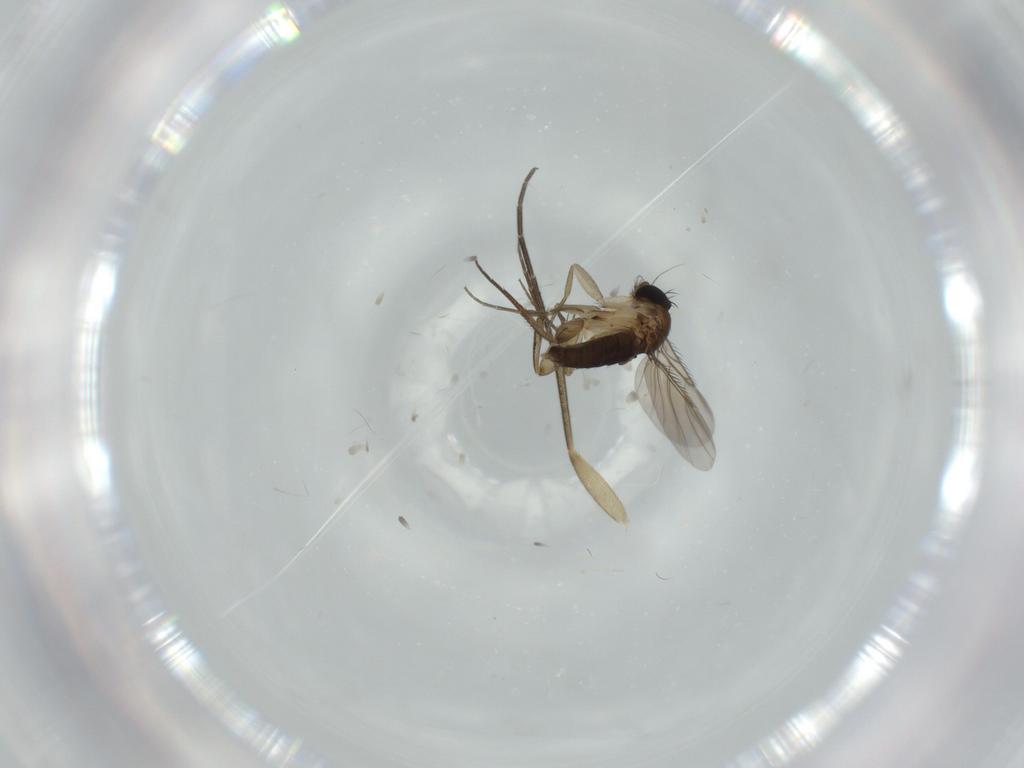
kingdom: Animalia
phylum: Arthropoda
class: Insecta
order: Diptera
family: Phoridae
